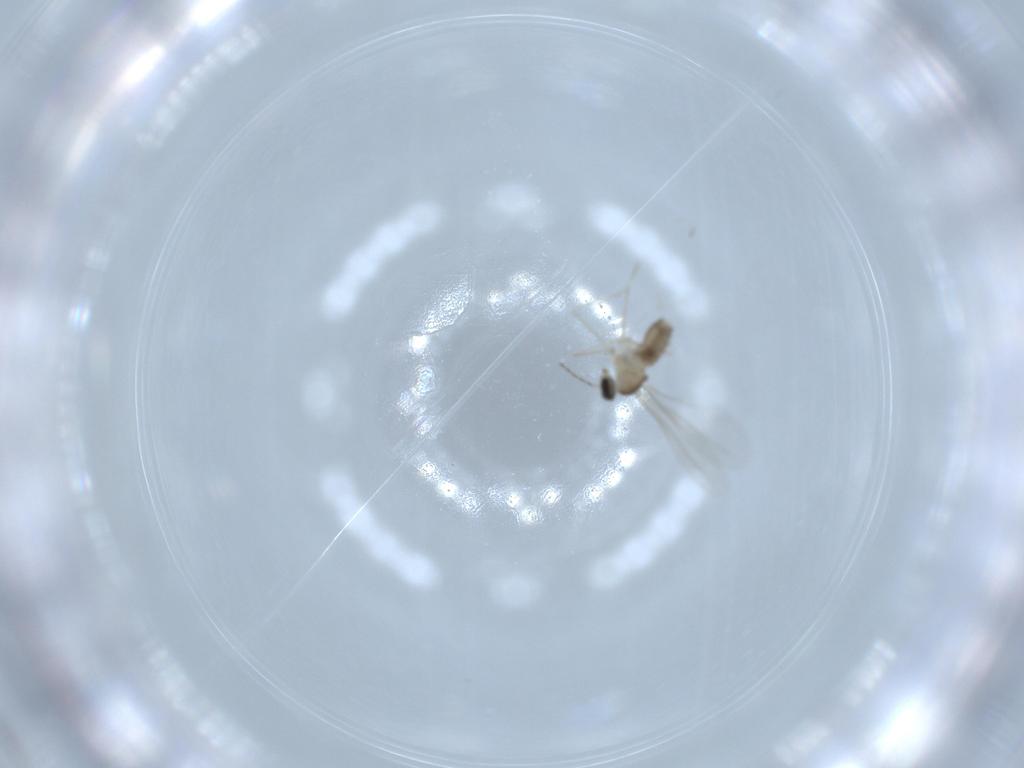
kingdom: Animalia
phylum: Arthropoda
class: Insecta
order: Diptera
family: Cecidomyiidae
